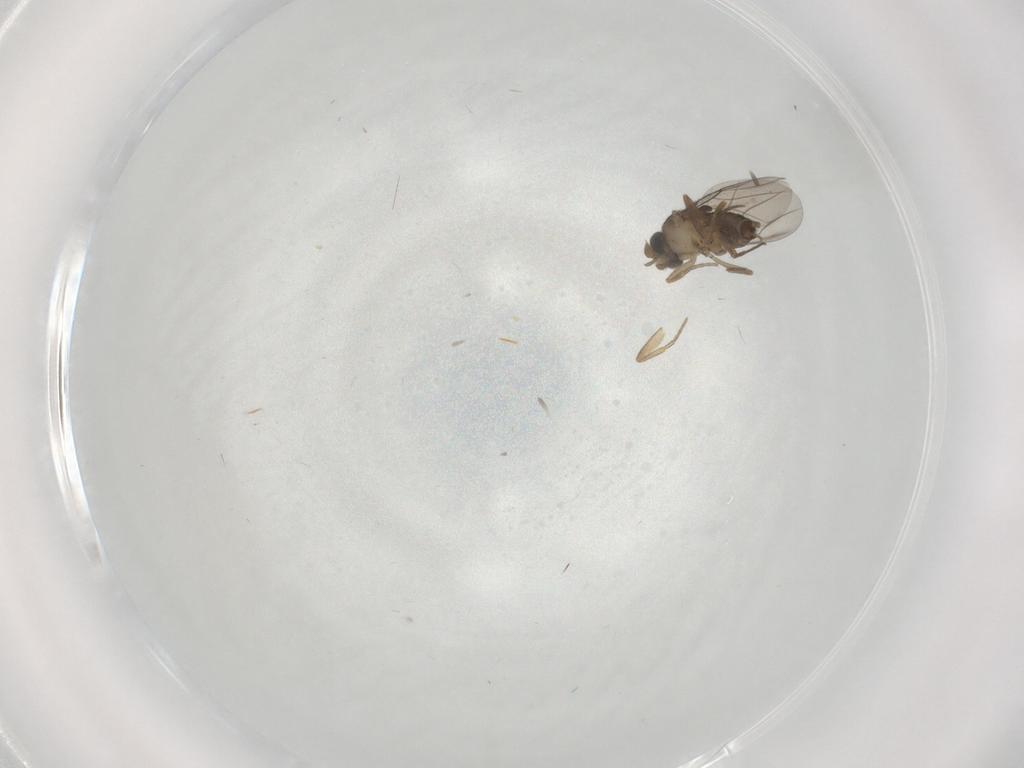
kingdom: Animalia
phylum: Arthropoda
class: Insecta
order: Diptera
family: Phoridae
